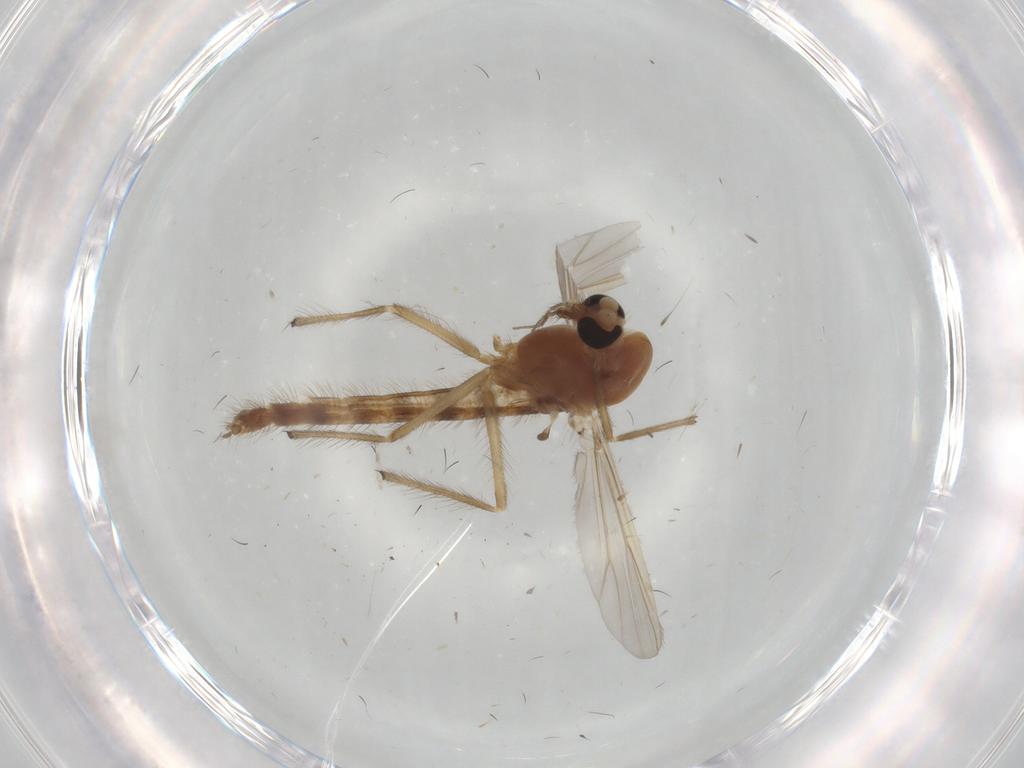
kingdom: Animalia
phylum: Arthropoda
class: Insecta
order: Diptera
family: Chironomidae
